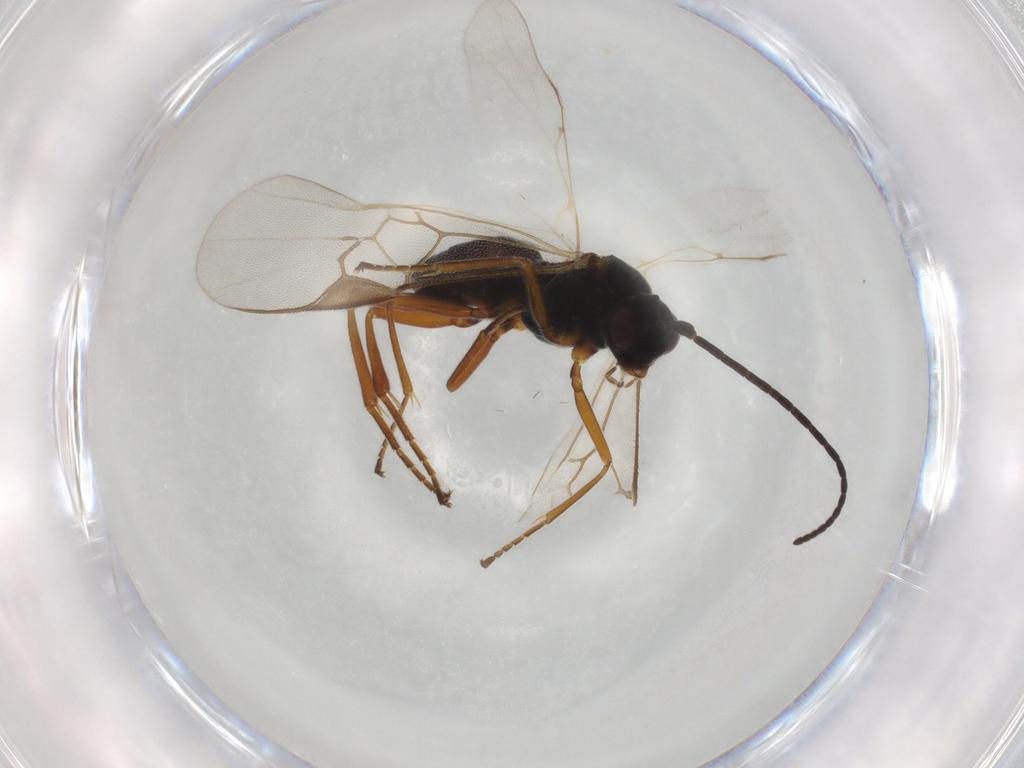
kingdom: Animalia
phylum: Arthropoda
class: Insecta
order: Hymenoptera
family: Braconidae
